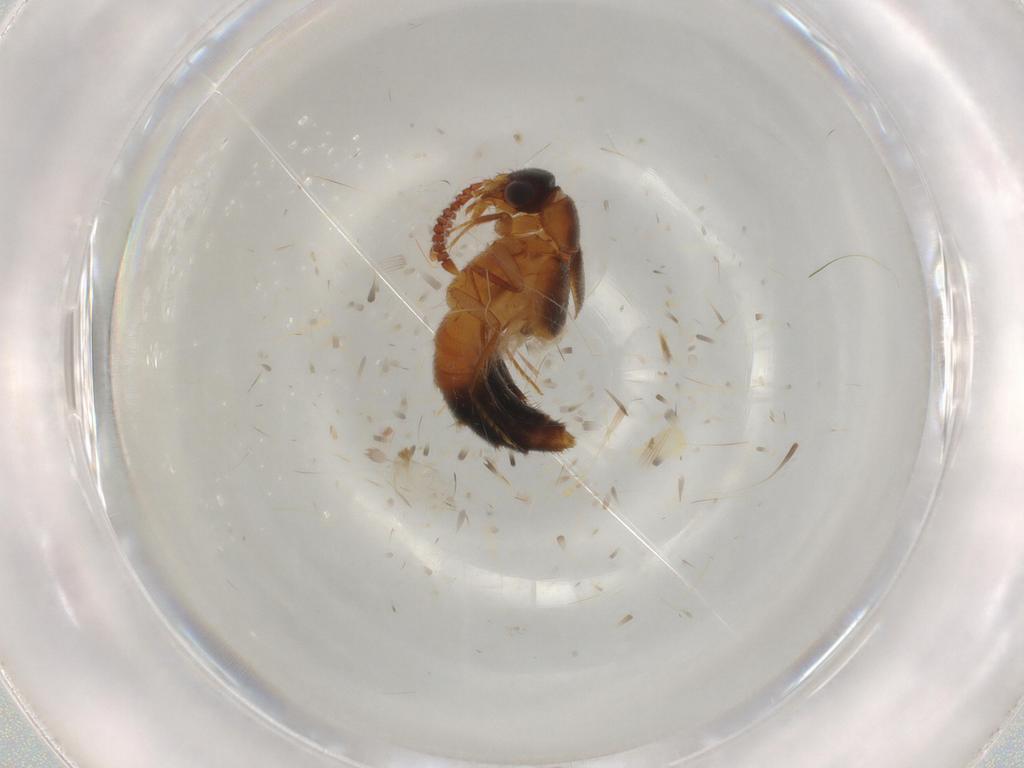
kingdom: Animalia
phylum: Arthropoda
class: Insecta
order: Coleoptera
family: Staphylinidae
